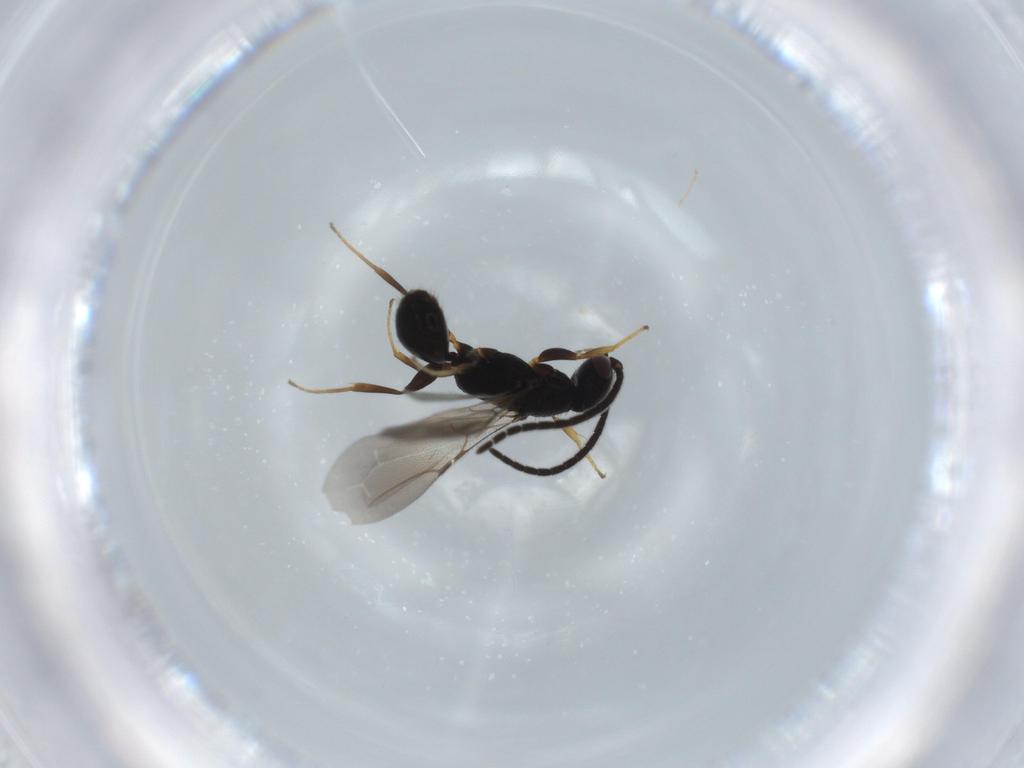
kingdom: Animalia
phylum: Arthropoda
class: Insecta
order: Hymenoptera
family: Bethylidae
